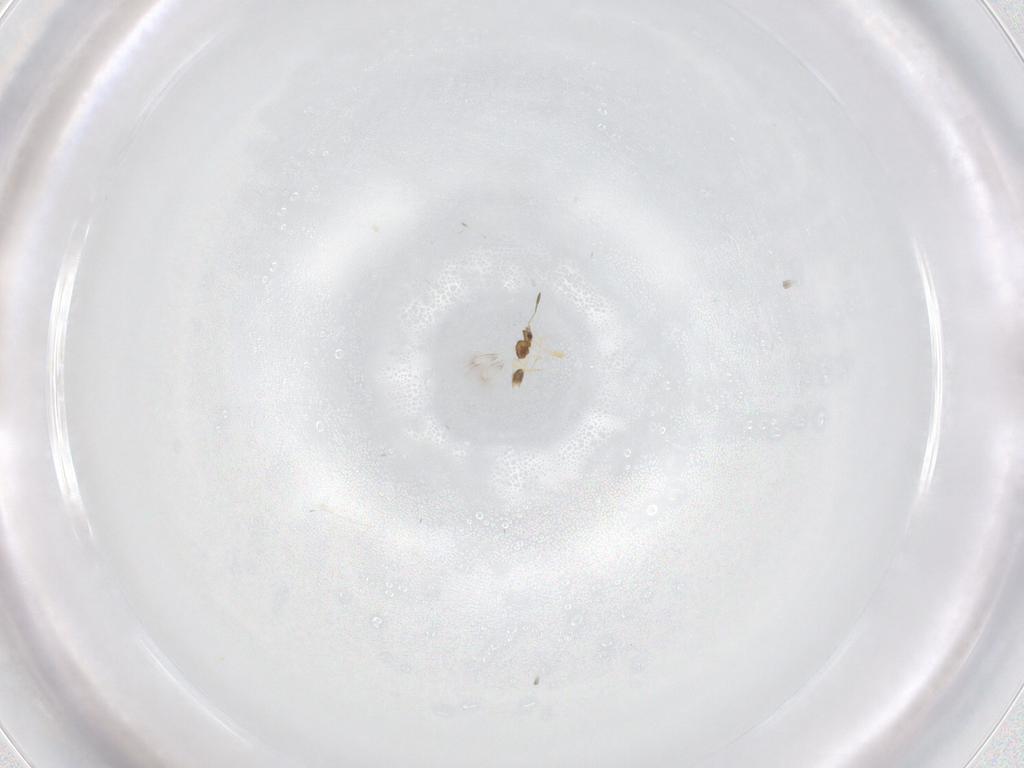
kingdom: Animalia
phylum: Arthropoda
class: Insecta
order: Hymenoptera
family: Mymarommatidae
